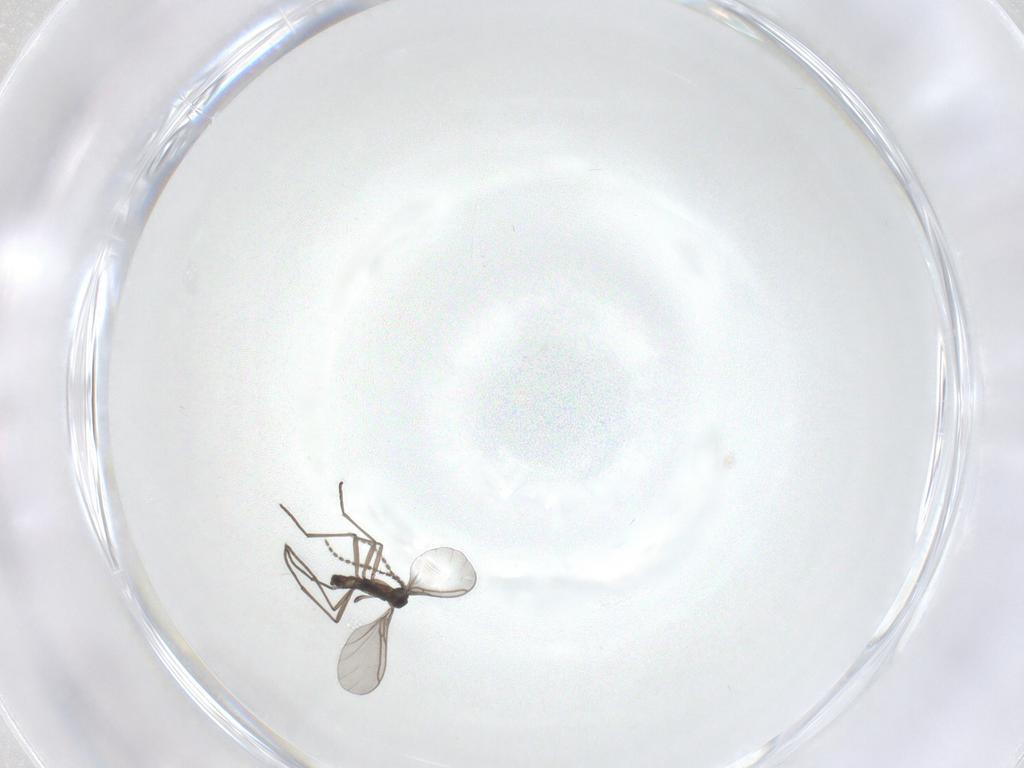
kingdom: Animalia
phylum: Arthropoda
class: Insecta
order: Diptera
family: Sciaridae
